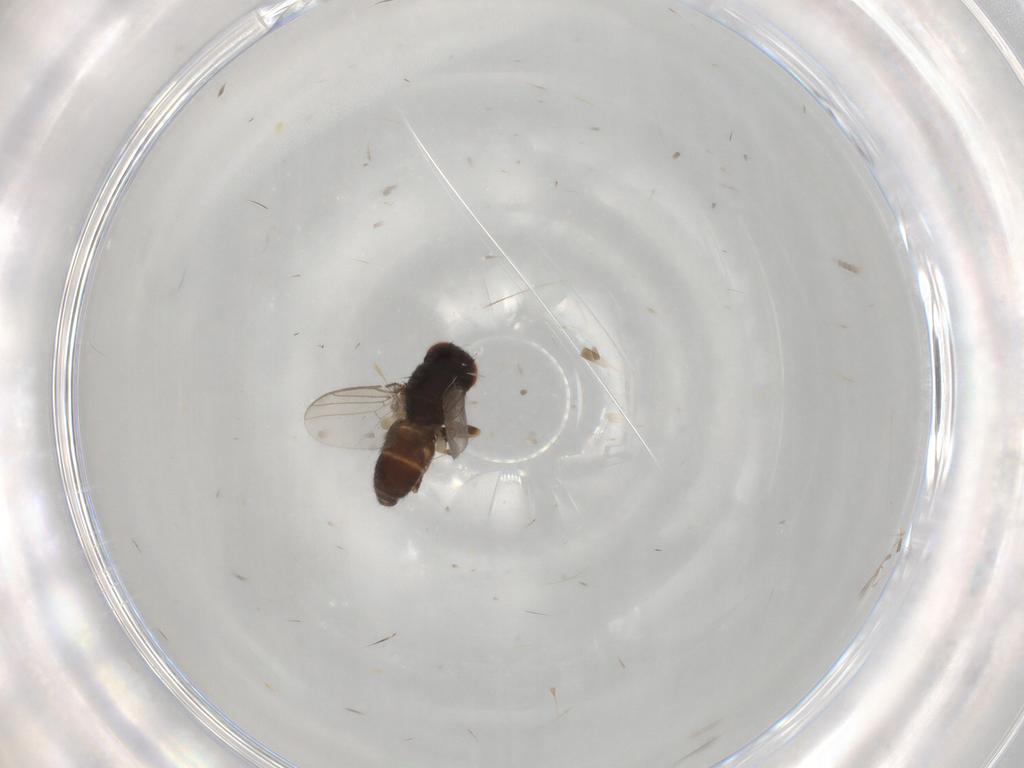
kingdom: Animalia
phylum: Arthropoda
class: Insecta
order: Diptera
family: Chloropidae
